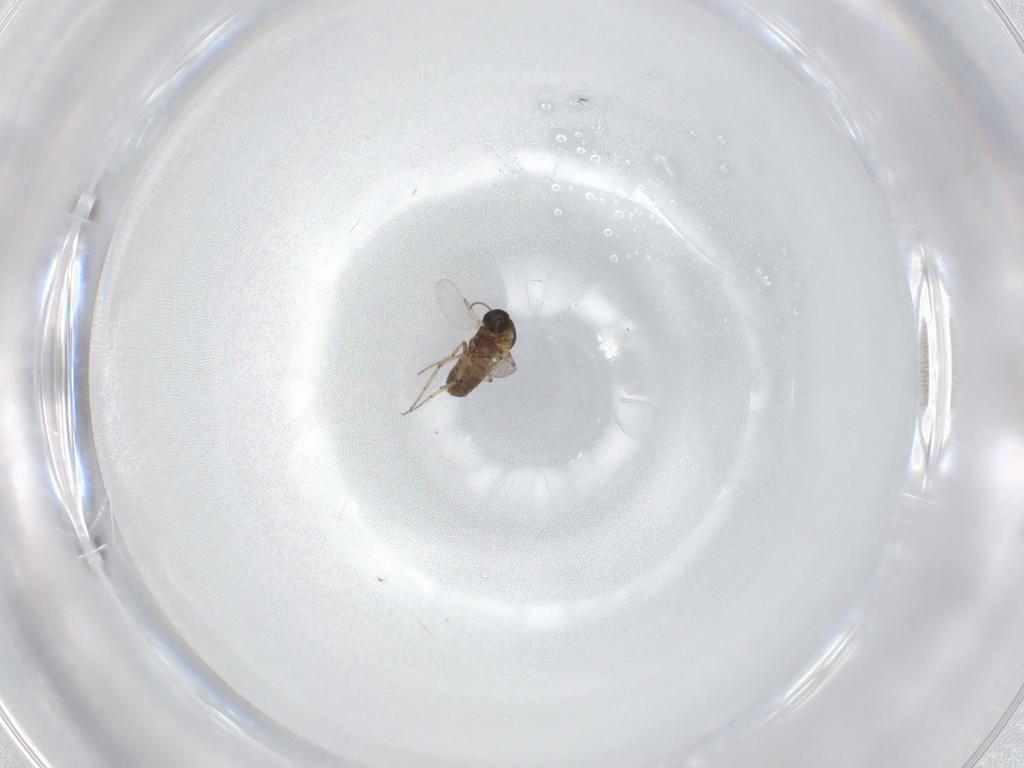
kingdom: Animalia
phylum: Arthropoda
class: Insecta
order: Diptera
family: Ceratopogonidae
